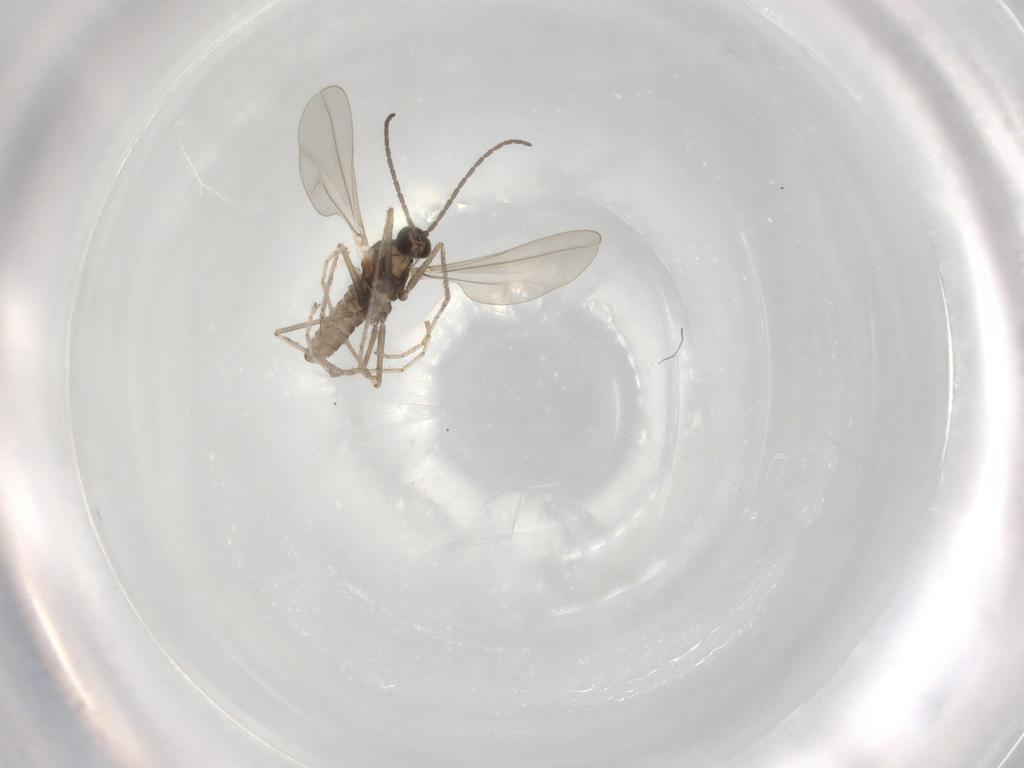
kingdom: Animalia
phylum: Arthropoda
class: Insecta
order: Diptera
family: Cecidomyiidae
